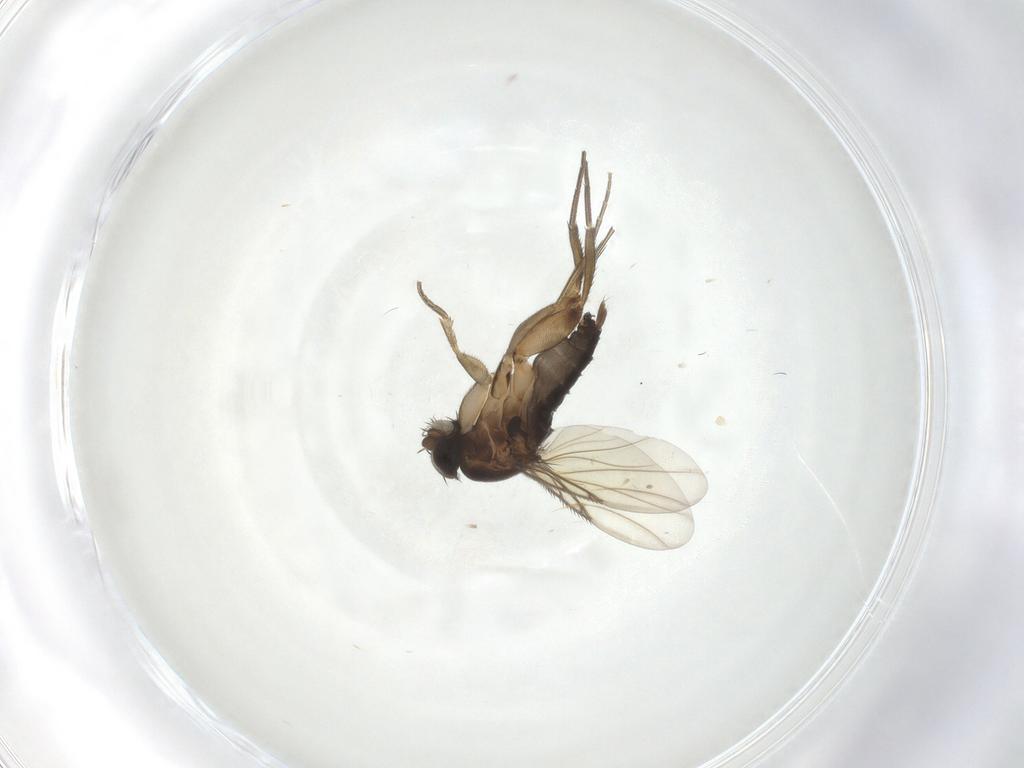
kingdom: Animalia
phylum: Arthropoda
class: Insecta
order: Diptera
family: Phoridae
